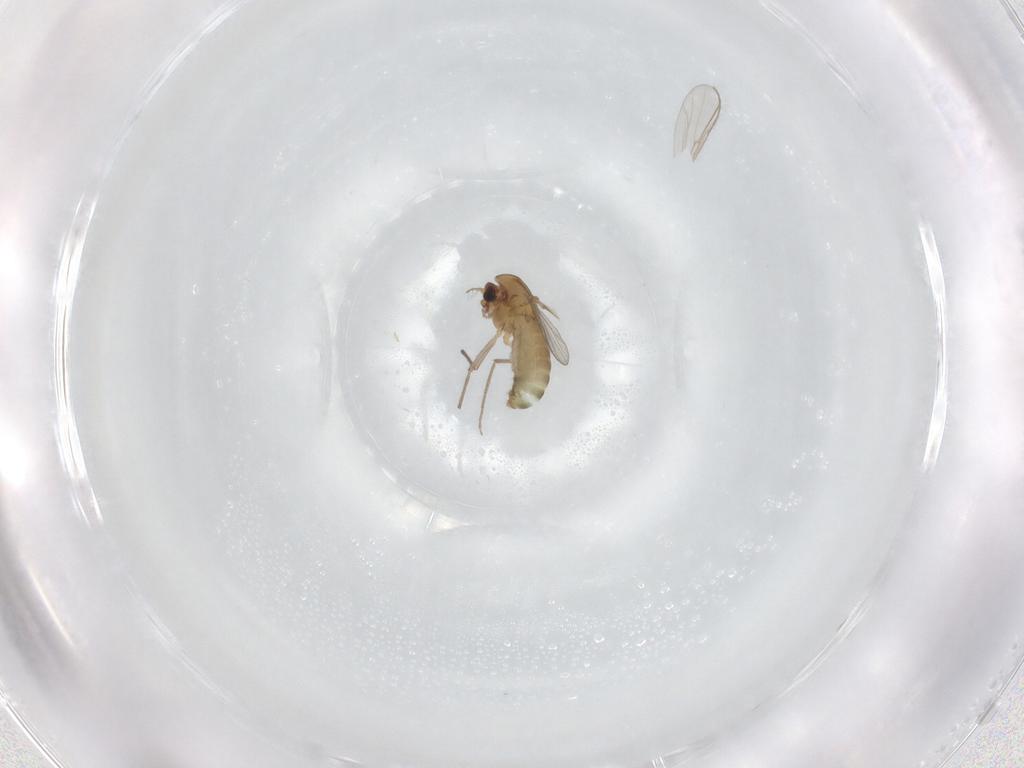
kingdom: Animalia
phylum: Arthropoda
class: Insecta
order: Diptera
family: Chironomidae
